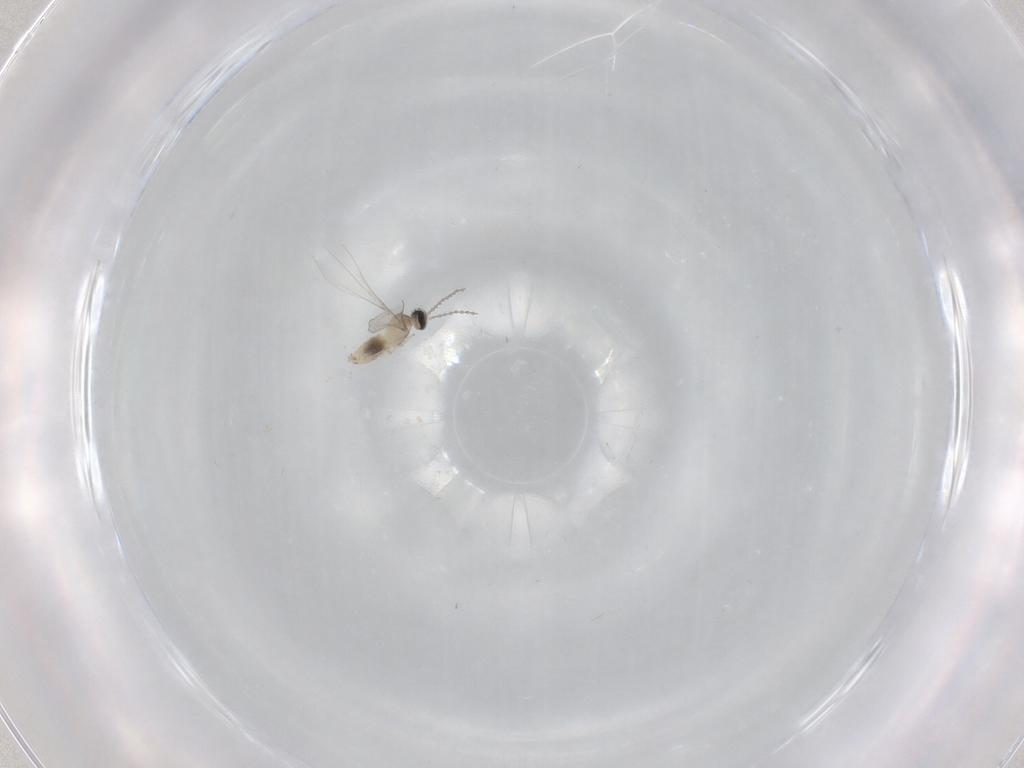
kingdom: Animalia
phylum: Arthropoda
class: Insecta
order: Diptera
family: Cecidomyiidae
